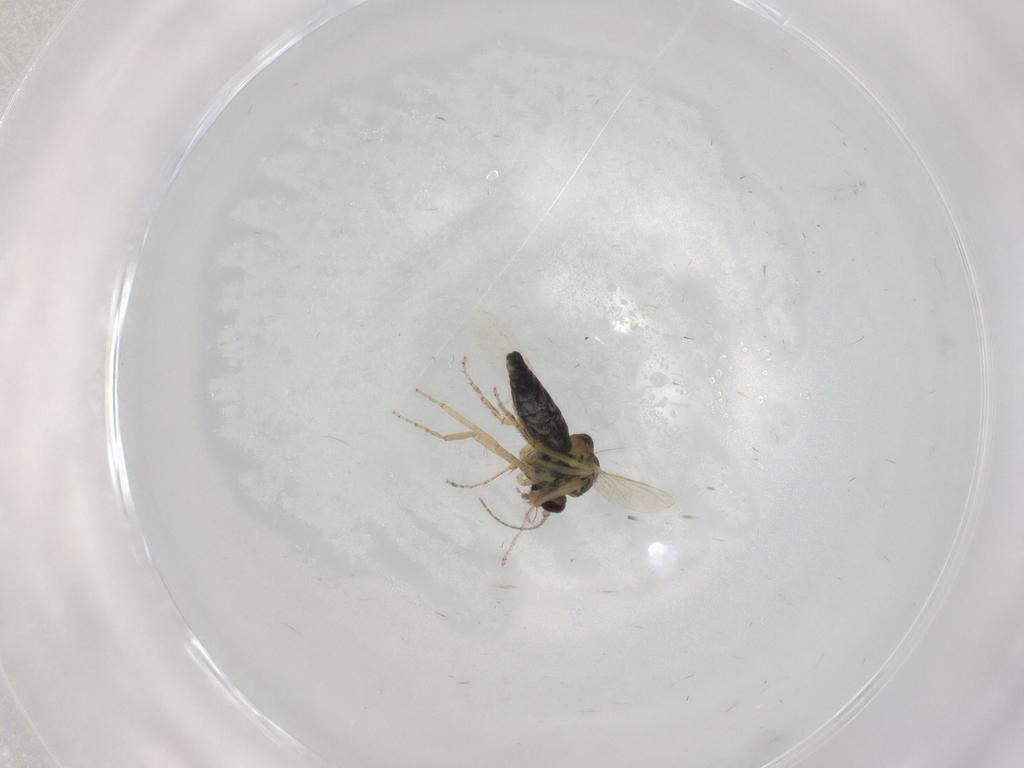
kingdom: Animalia
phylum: Arthropoda
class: Insecta
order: Diptera
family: Ceratopogonidae
